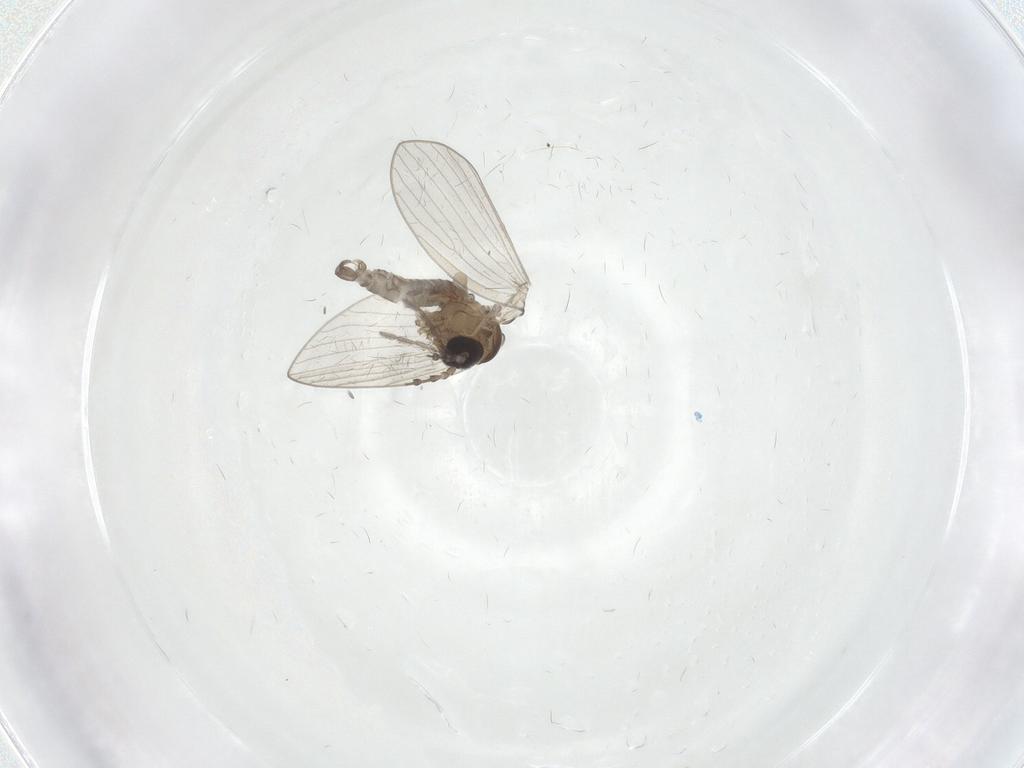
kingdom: Animalia
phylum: Arthropoda
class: Insecta
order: Diptera
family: Psychodidae
